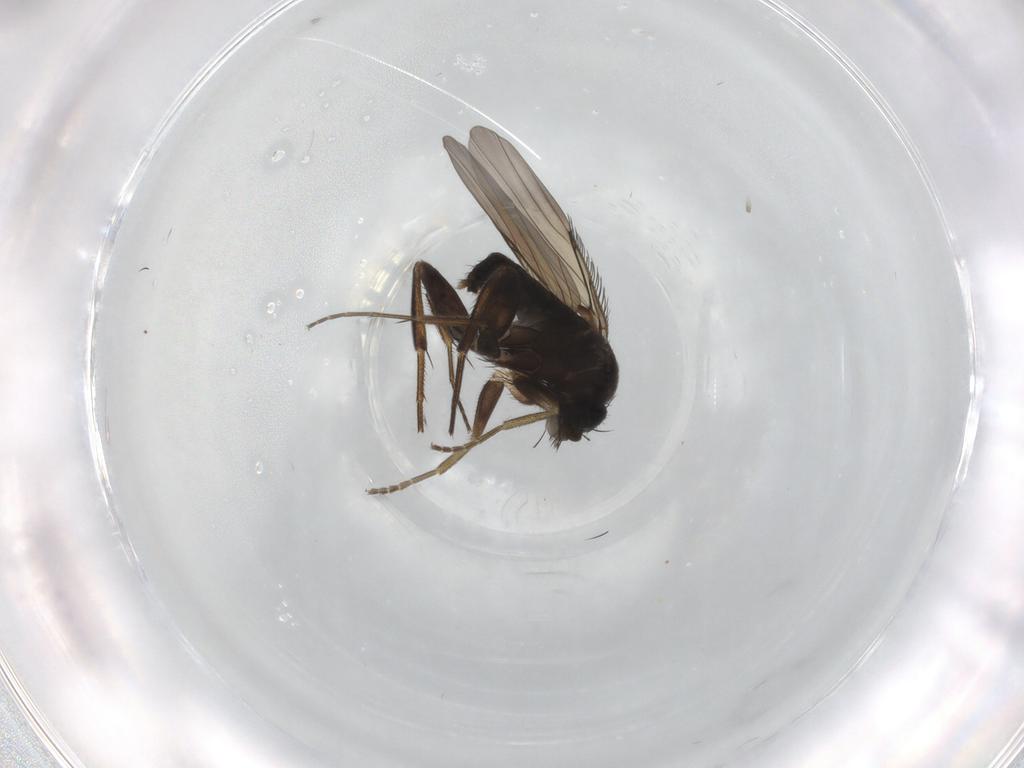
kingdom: Animalia
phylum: Arthropoda
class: Insecta
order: Diptera
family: Phoridae
